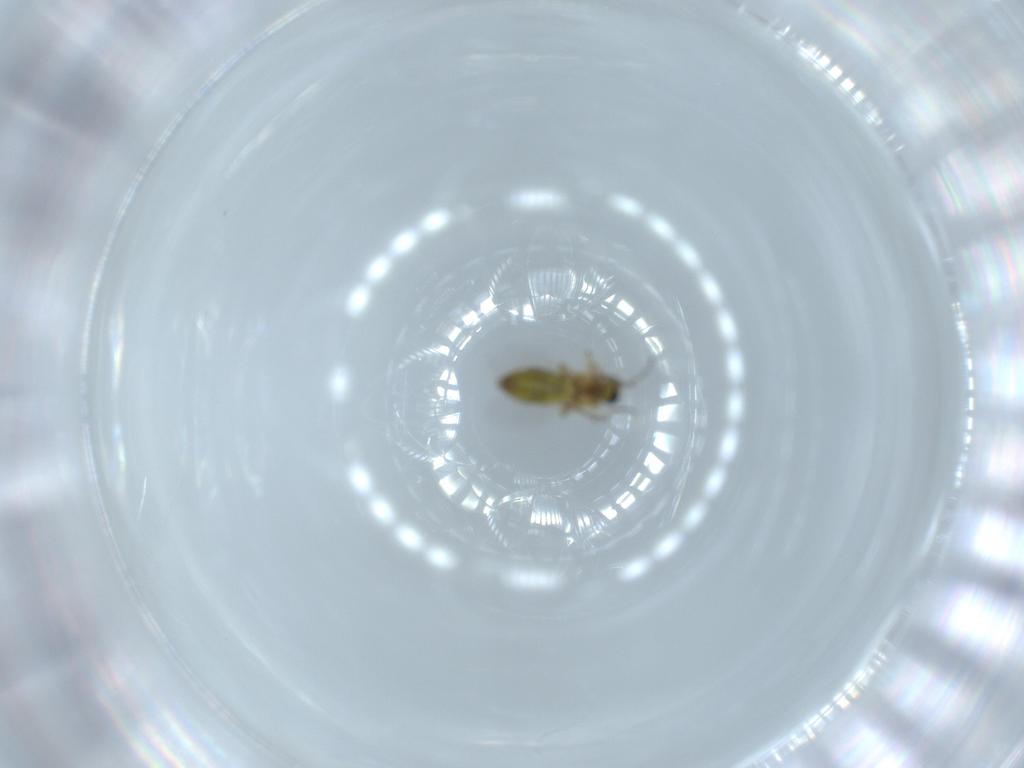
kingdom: Animalia
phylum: Arthropoda
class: Insecta
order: Diptera
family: Ceratopogonidae
